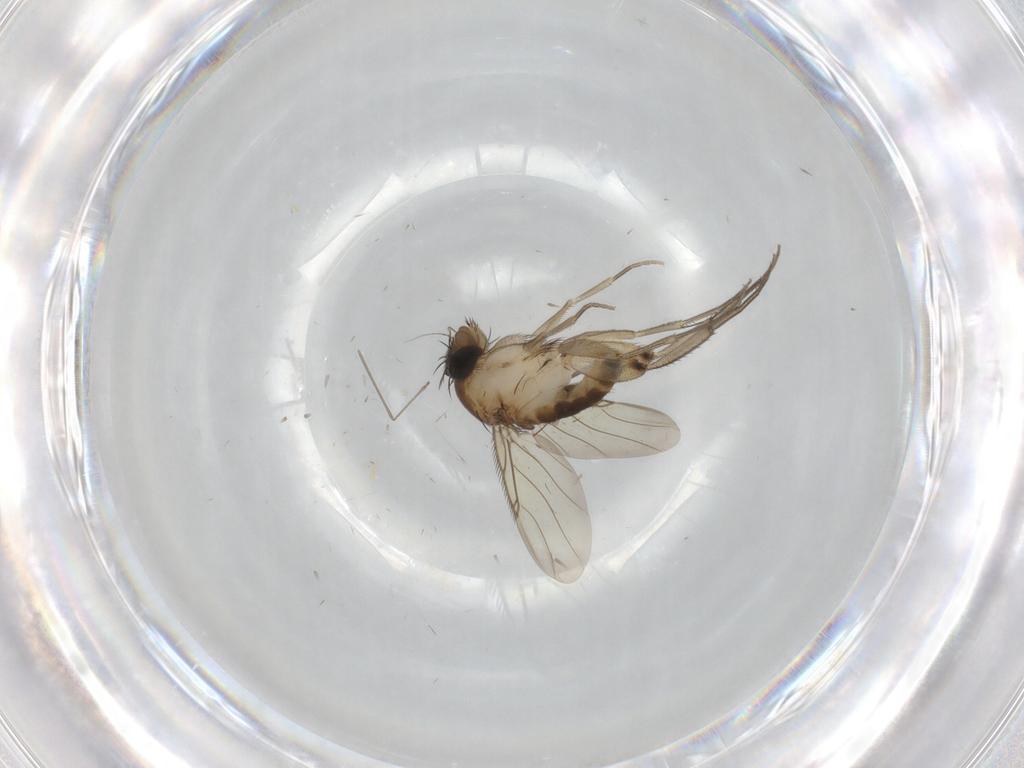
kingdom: Animalia
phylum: Arthropoda
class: Insecta
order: Diptera
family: Phoridae
